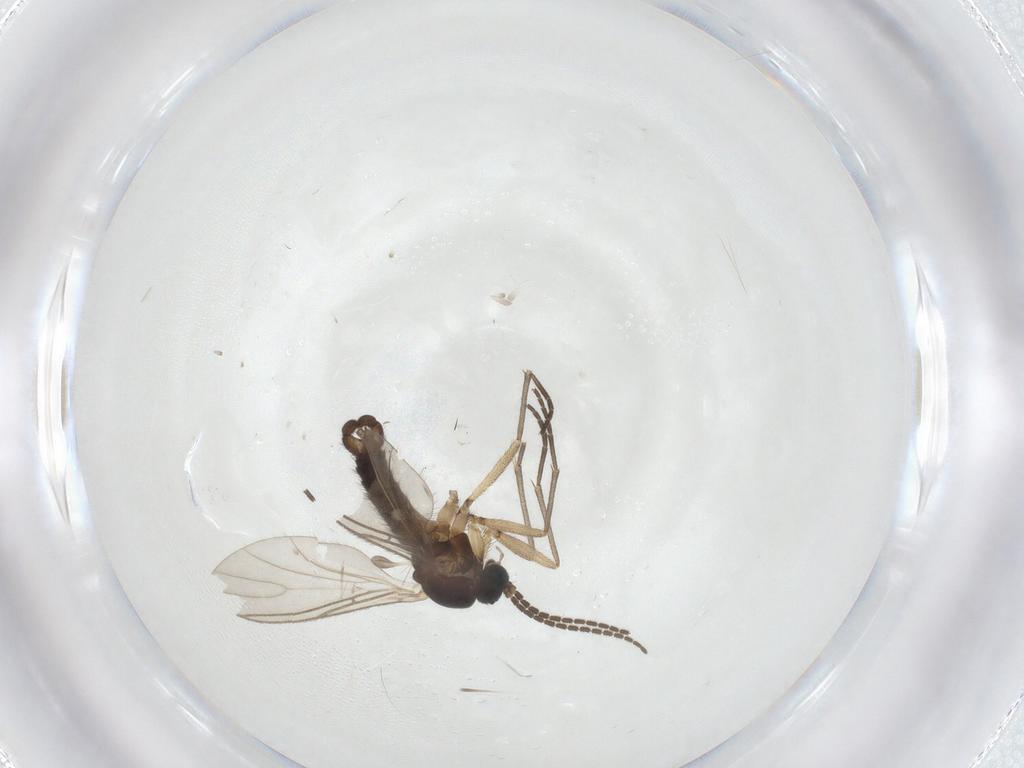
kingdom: Animalia
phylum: Arthropoda
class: Insecta
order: Diptera
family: Sciaridae
